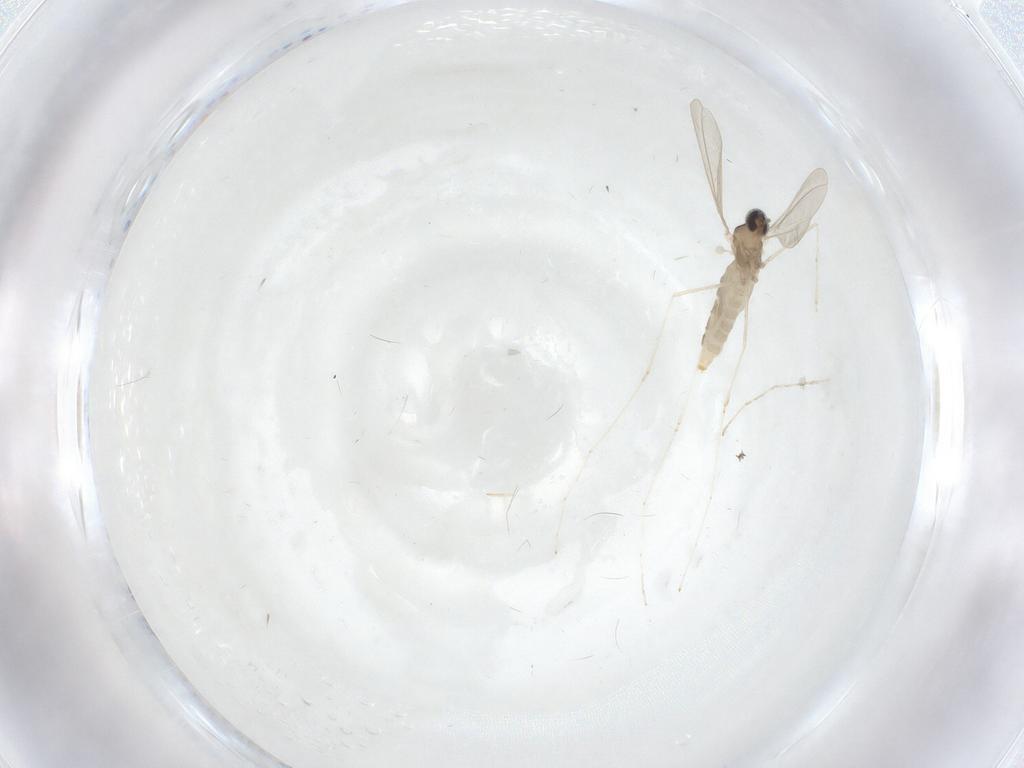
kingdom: Animalia
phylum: Arthropoda
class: Insecta
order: Diptera
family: Cecidomyiidae
